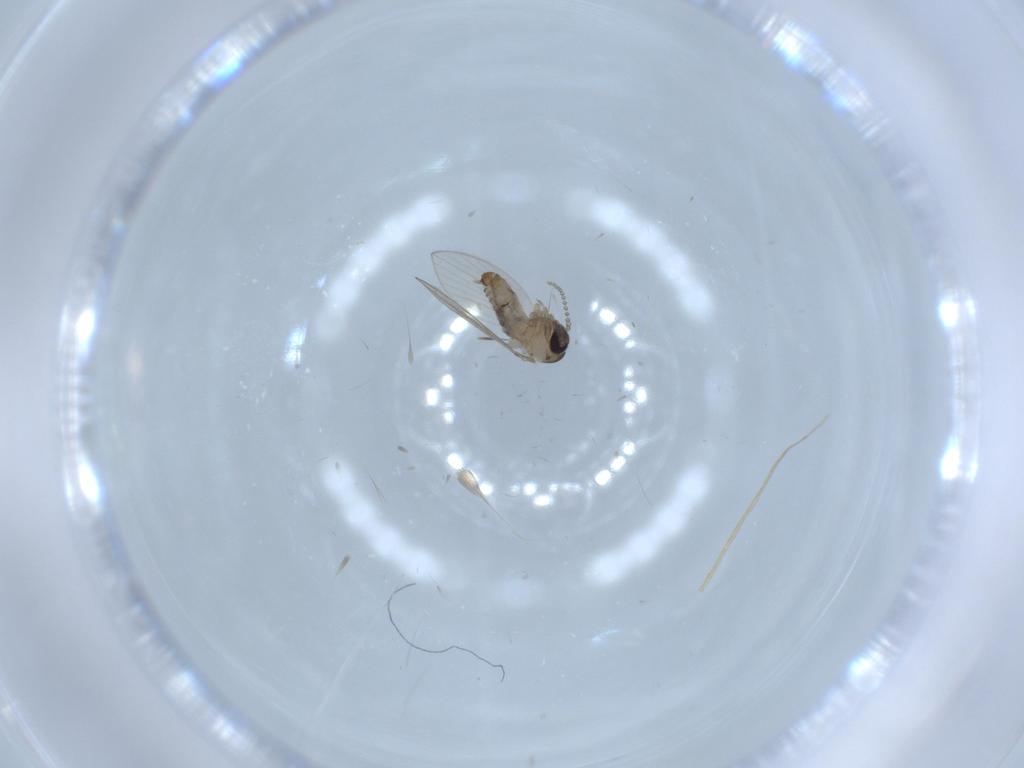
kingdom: Animalia
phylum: Arthropoda
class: Insecta
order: Diptera
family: Psychodidae
